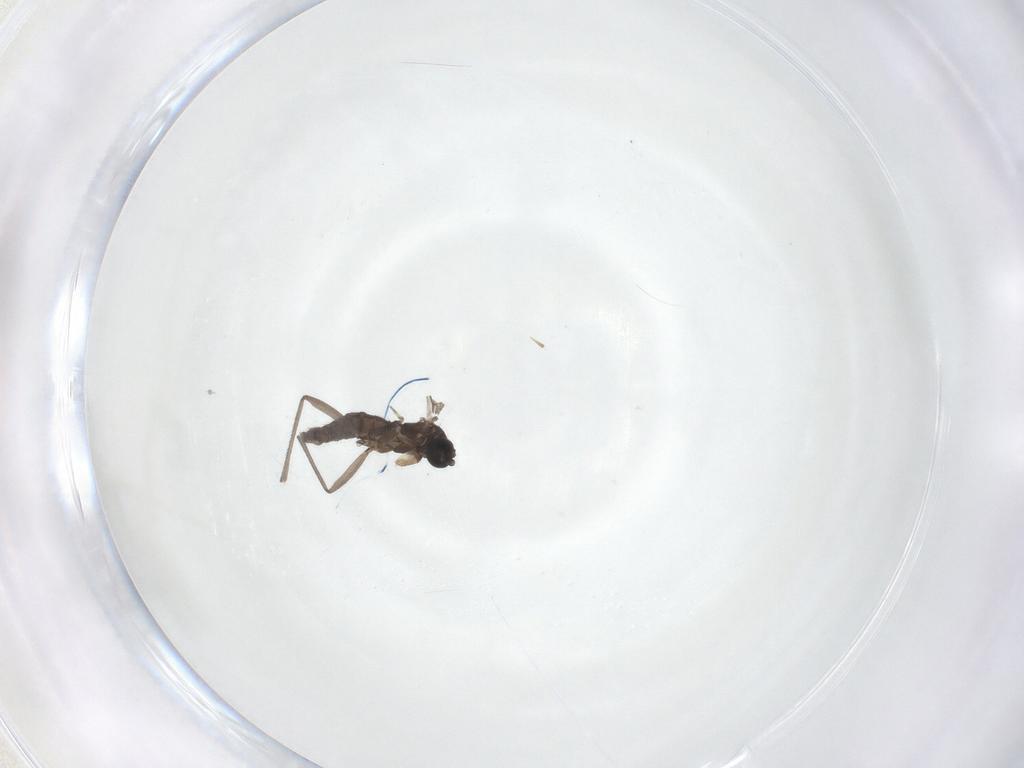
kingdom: Animalia
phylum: Arthropoda
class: Insecta
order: Diptera
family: Sciaridae
